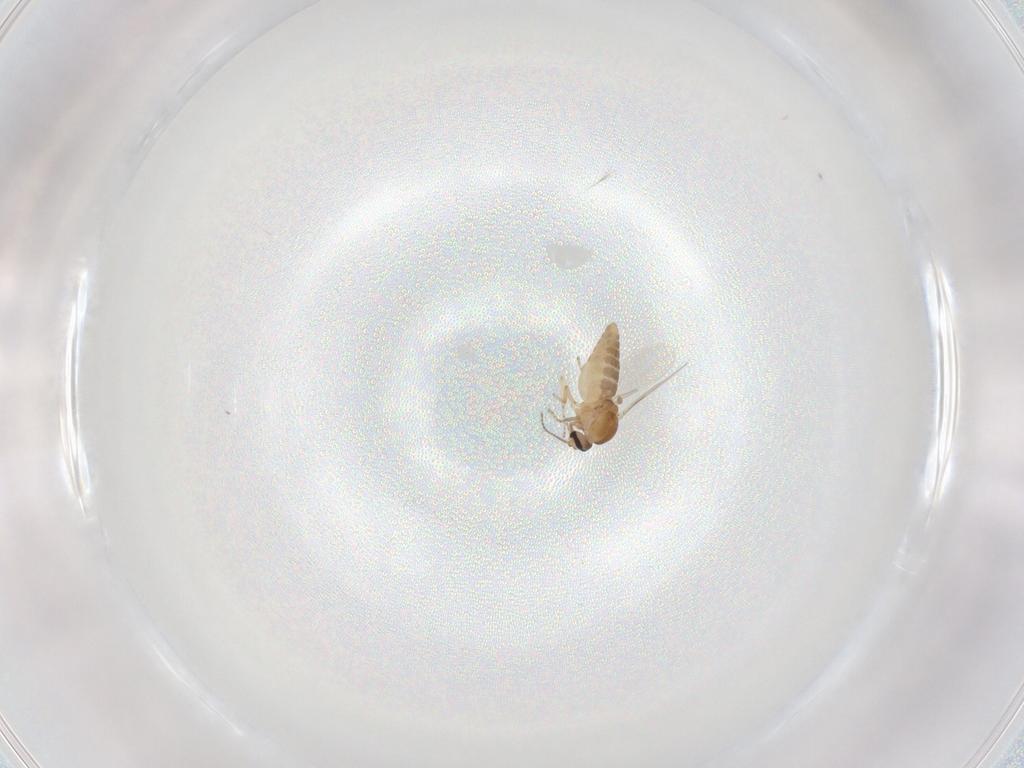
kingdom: Animalia
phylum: Arthropoda
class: Insecta
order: Diptera
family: Ceratopogonidae
